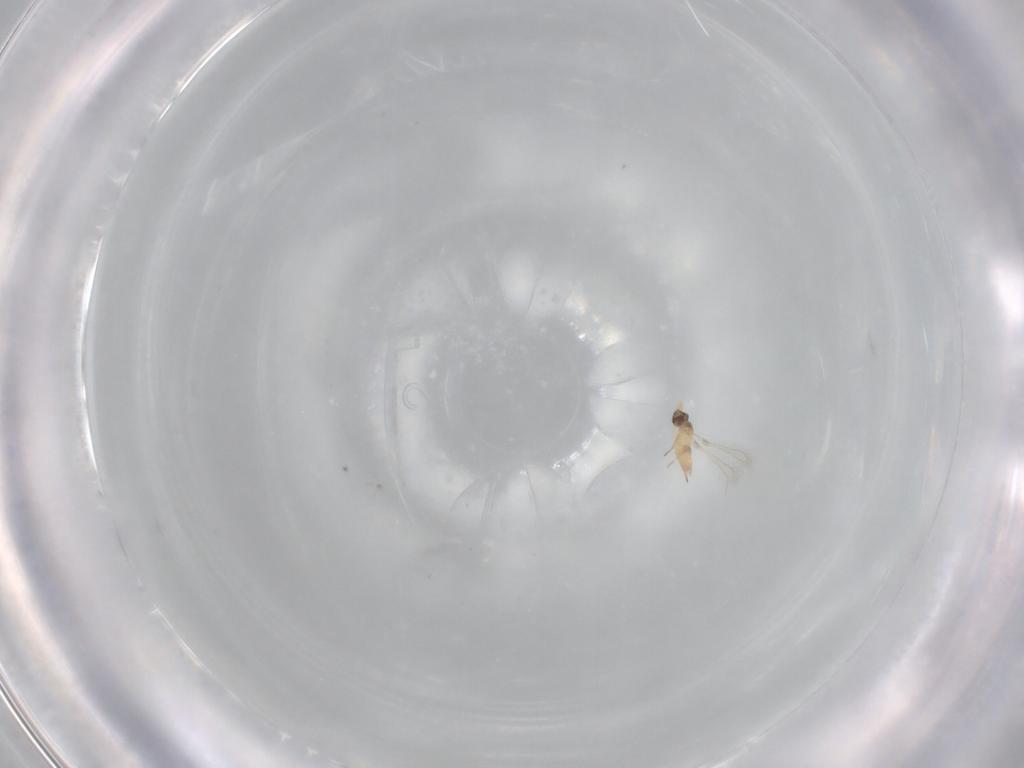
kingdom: Animalia
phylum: Arthropoda
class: Insecta
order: Hymenoptera
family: Mymaridae
